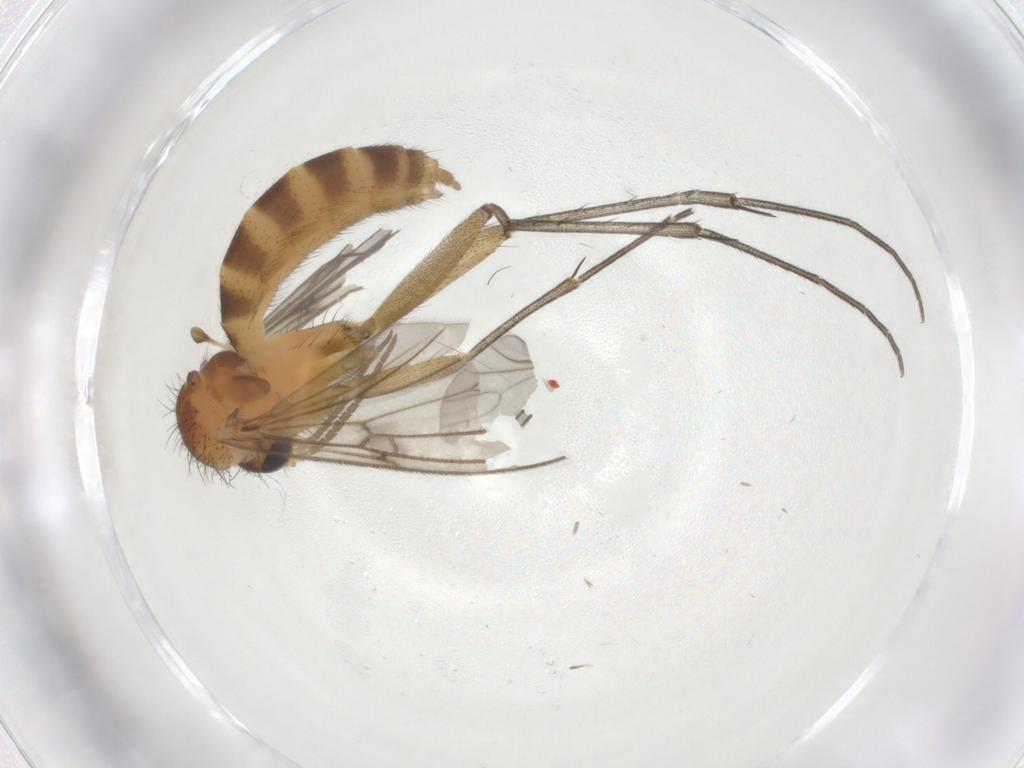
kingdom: Animalia
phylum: Arthropoda
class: Insecta
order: Diptera
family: Mycetophilidae
